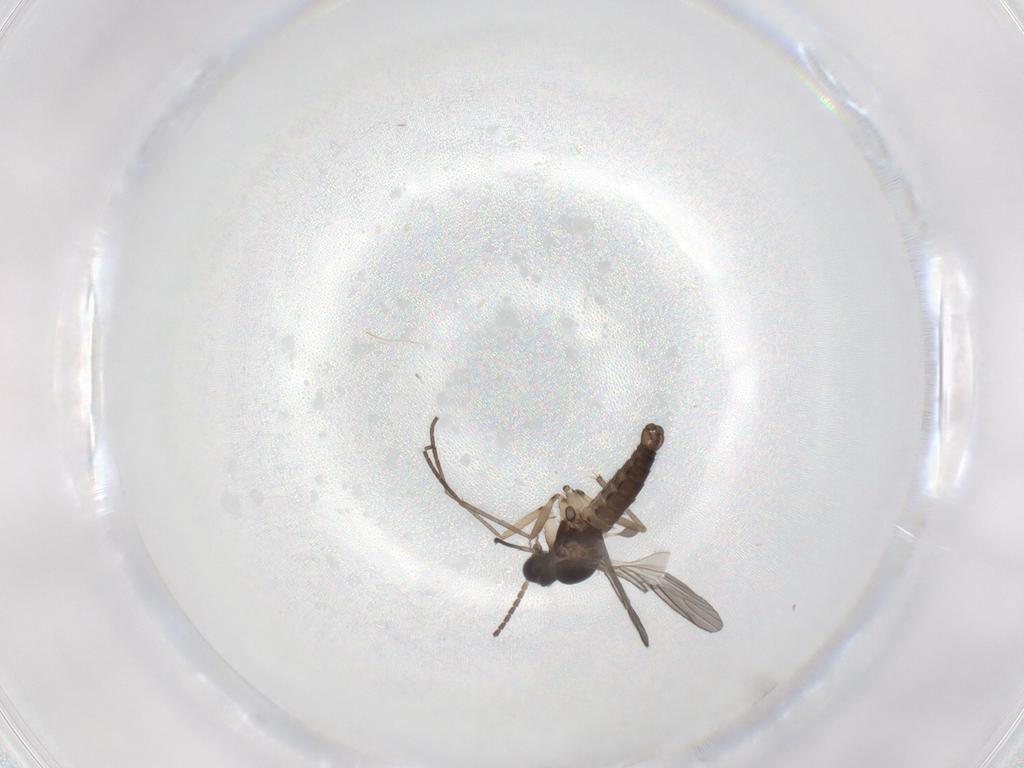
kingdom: Animalia
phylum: Arthropoda
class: Insecta
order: Diptera
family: Sciaridae
